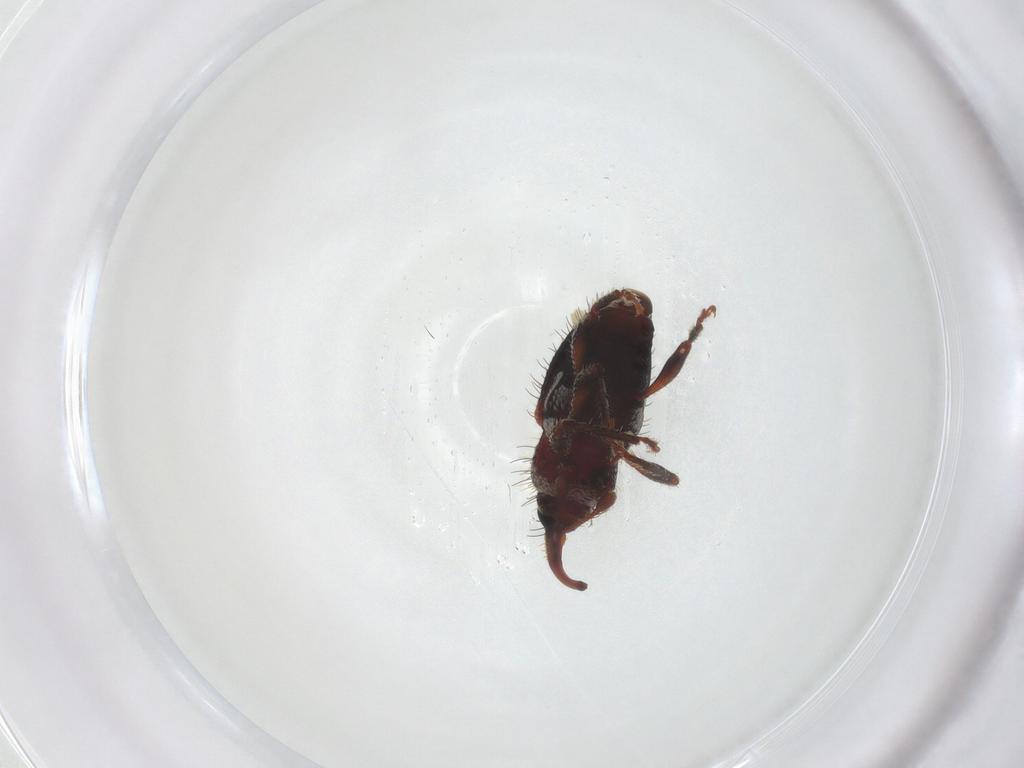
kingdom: Animalia
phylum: Arthropoda
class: Insecta
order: Coleoptera
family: Curculionidae
